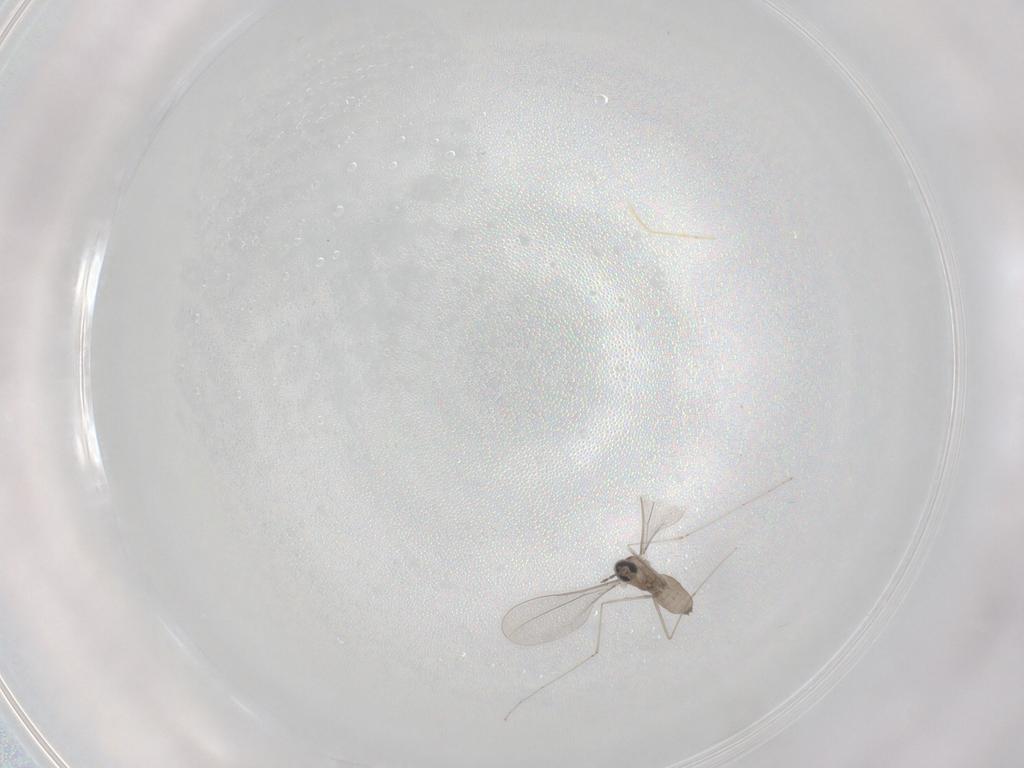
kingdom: Animalia
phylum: Arthropoda
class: Insecta
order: Diptera
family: Cecidomyiidae
